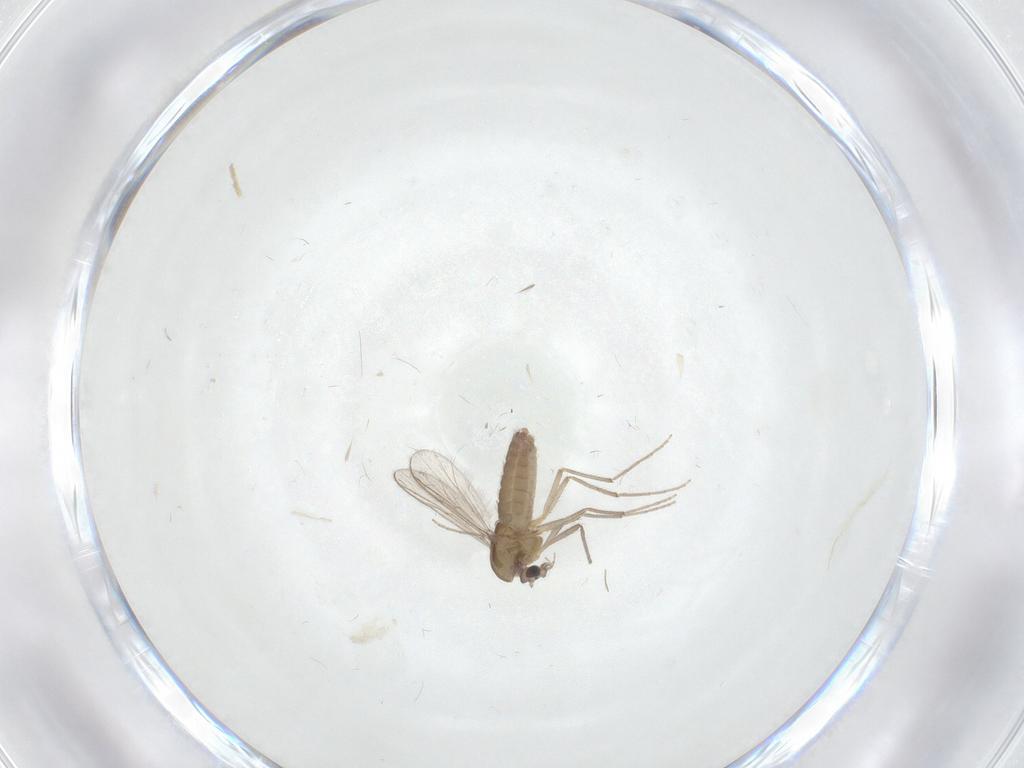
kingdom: Animalia
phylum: Arthropoda
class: Insecta
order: Diptera
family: Chironomidae
